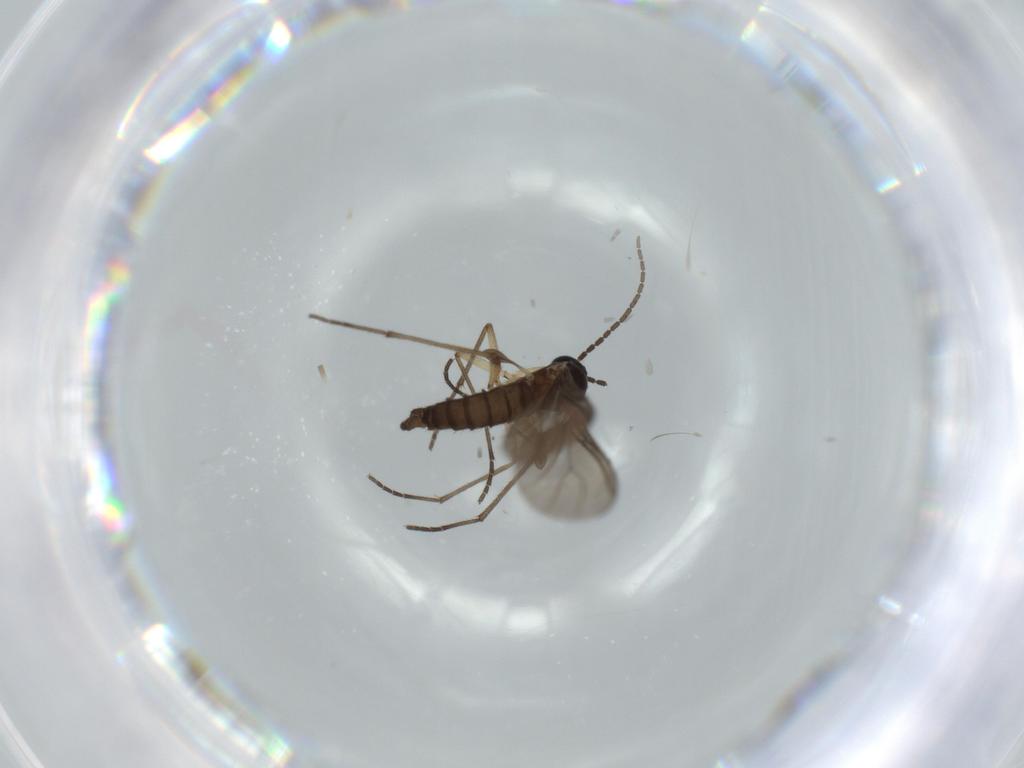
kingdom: Animalia
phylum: Arthropoda
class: Insecta
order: Diptera
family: Sciaridae
